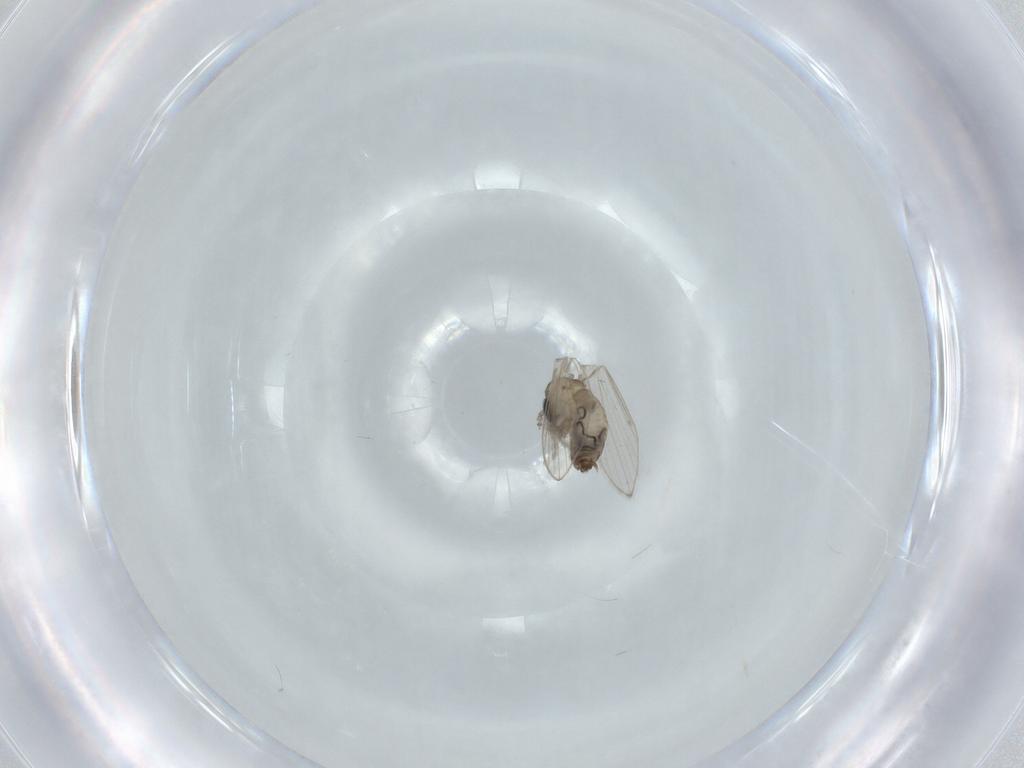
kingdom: Animalia
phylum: Arthropoda
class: Insecta
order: Diptera
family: Psychodidae
